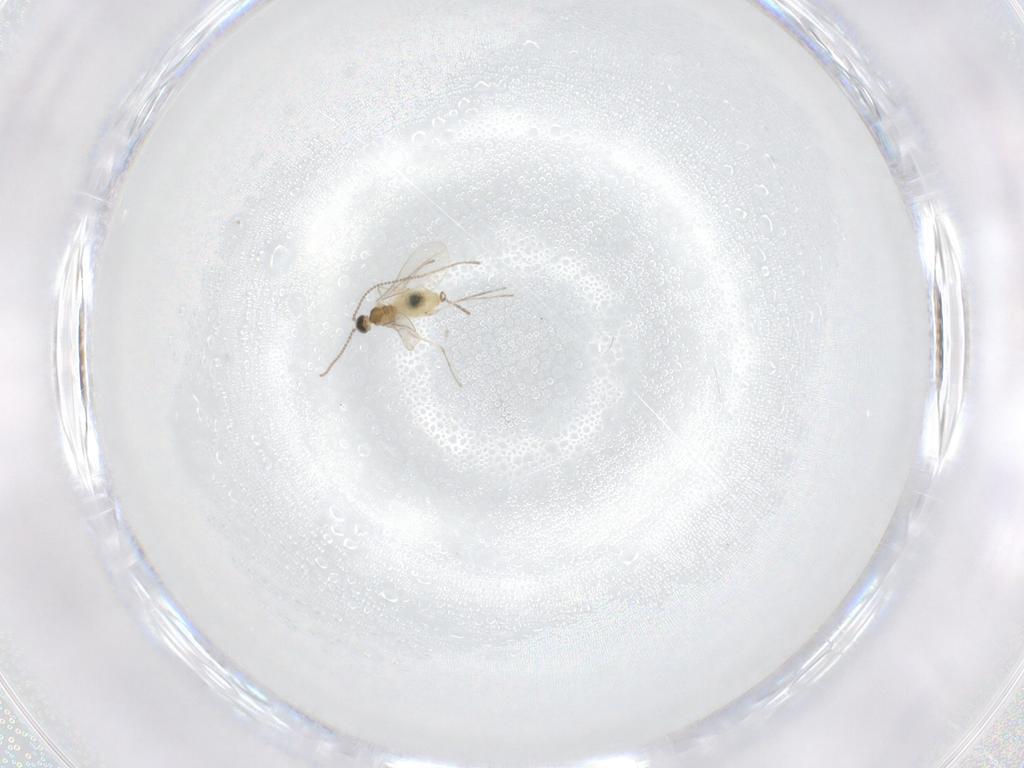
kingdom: Animalia
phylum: Arthropoda
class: Insecta
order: Diptera
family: Cecidomyiidae
